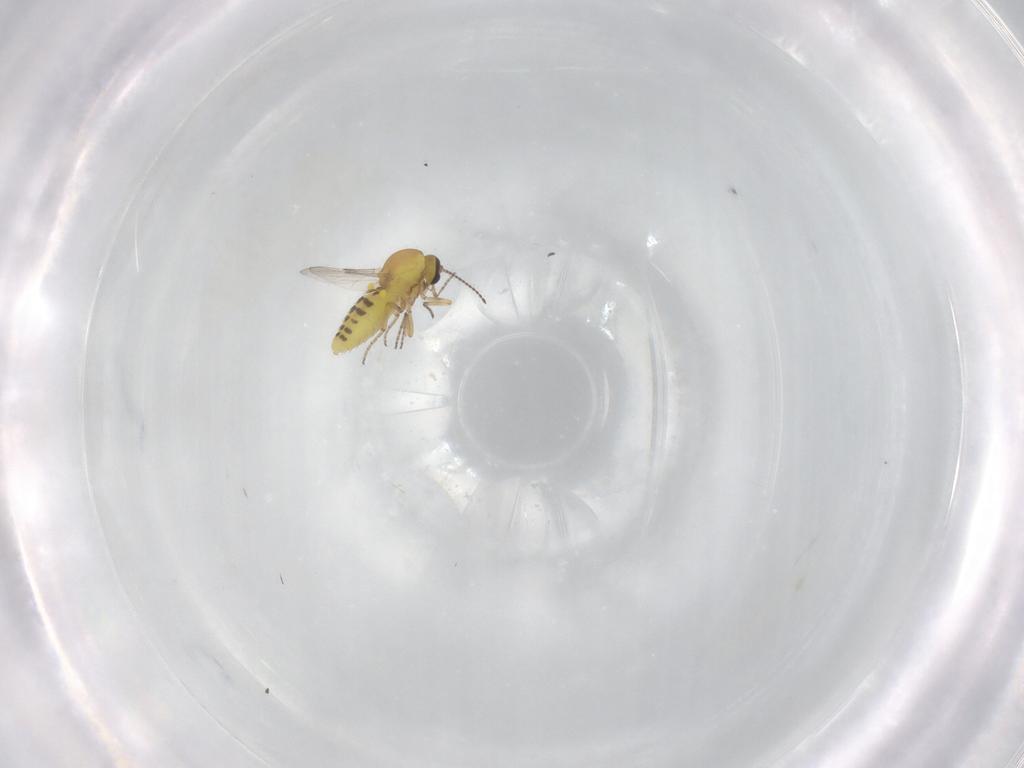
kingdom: Animalia
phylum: Arthropoda
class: Insecta
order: Diptera
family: Ceratopogonidae
